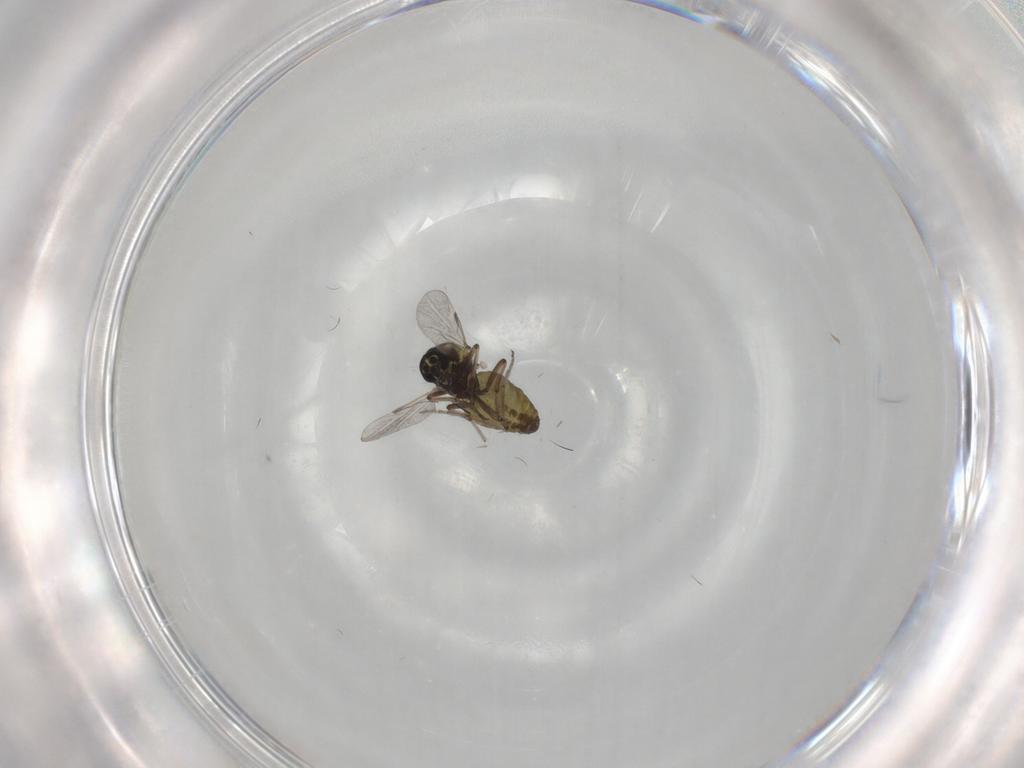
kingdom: Animalia
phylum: Arthropoda
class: Insecta
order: Diptera
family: Ceratopogonidae
